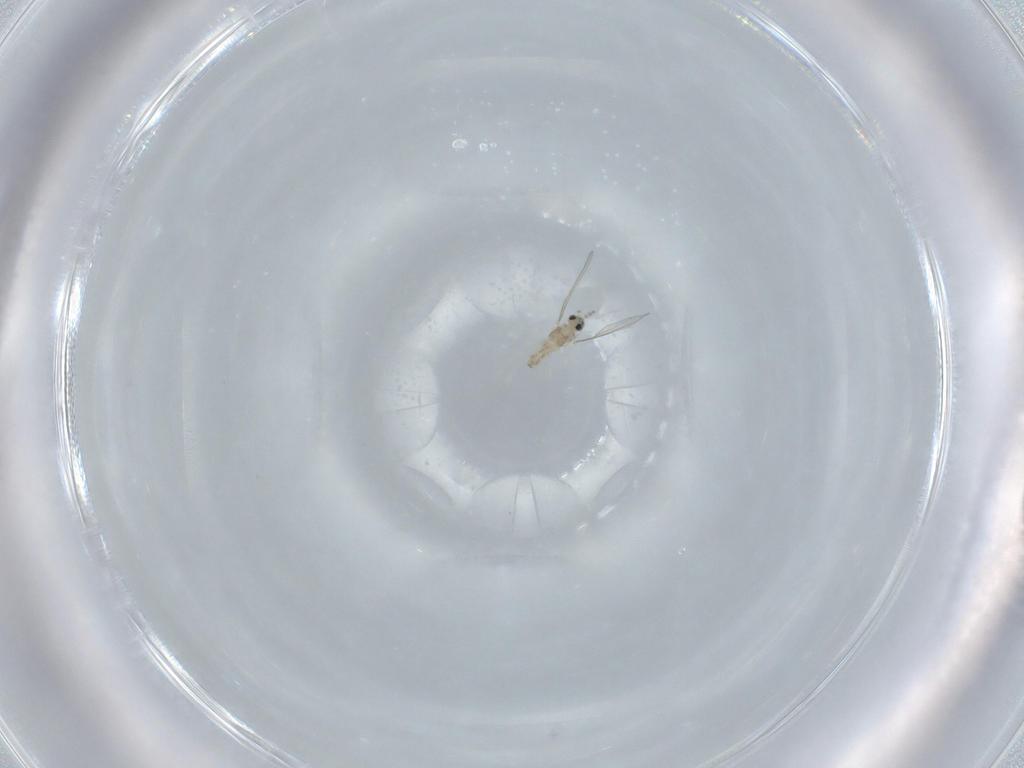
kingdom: Animalia
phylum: Arthropoda
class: Insecta
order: Diptera
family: Cecidomyiidae
